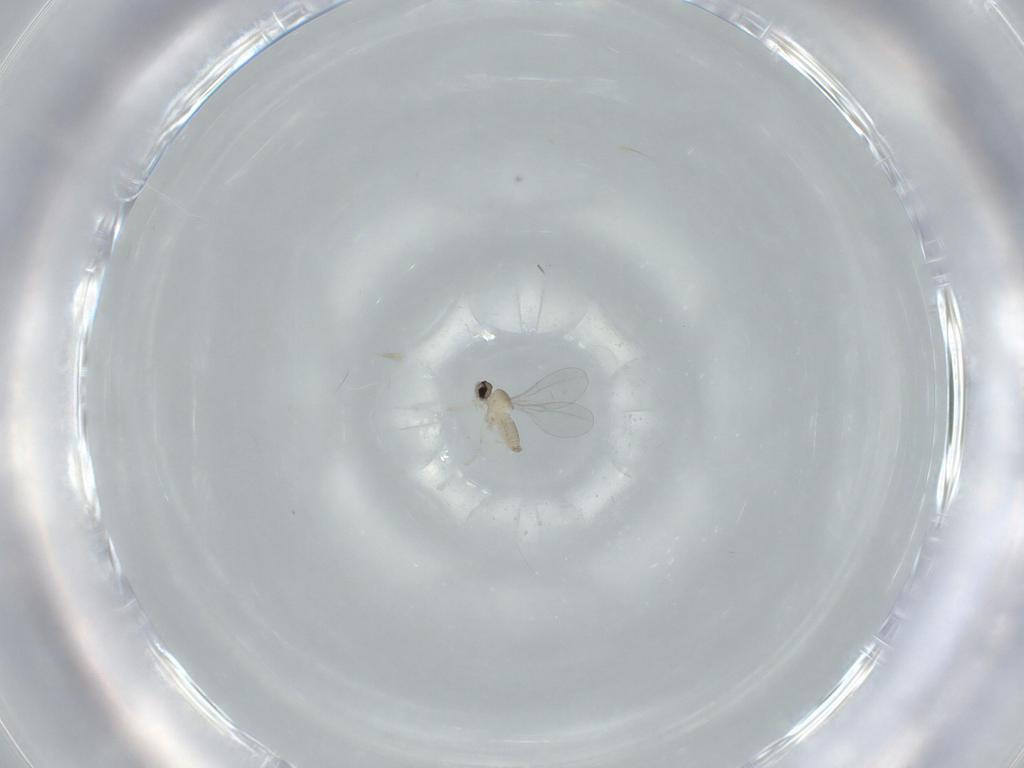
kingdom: Animalia
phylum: Arthropoda
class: Insecta
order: Diptera
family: Cecidomyiidae
